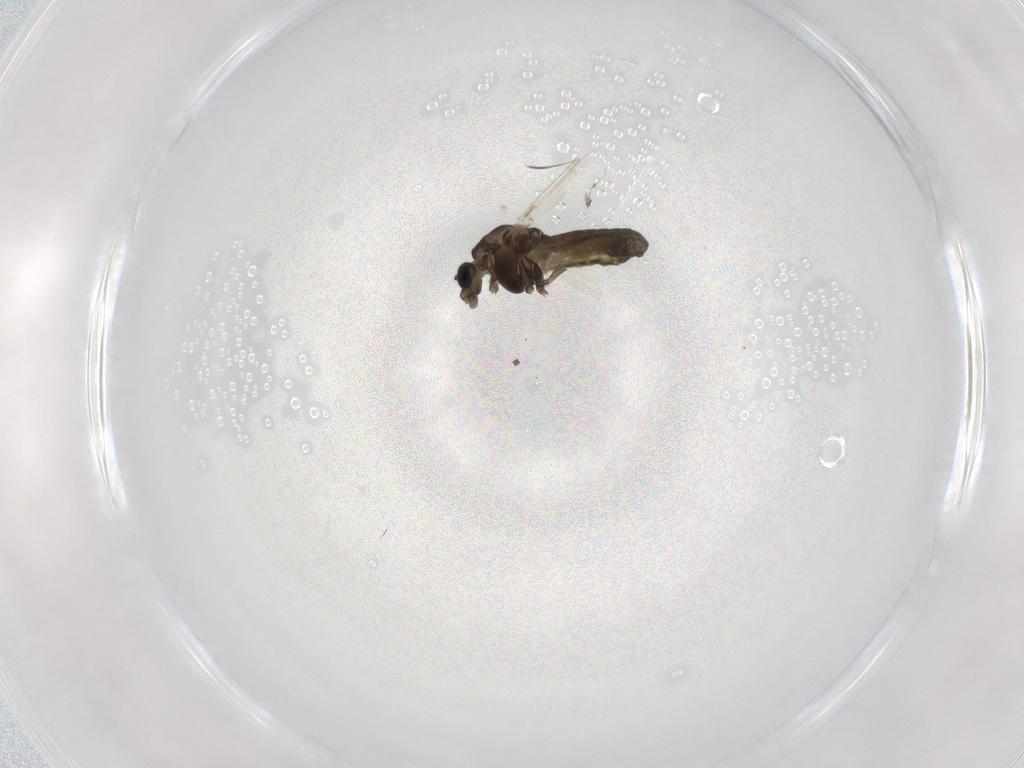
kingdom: Animalia
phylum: Arthropoda
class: Insecta
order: Diptera
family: Chironomidae
